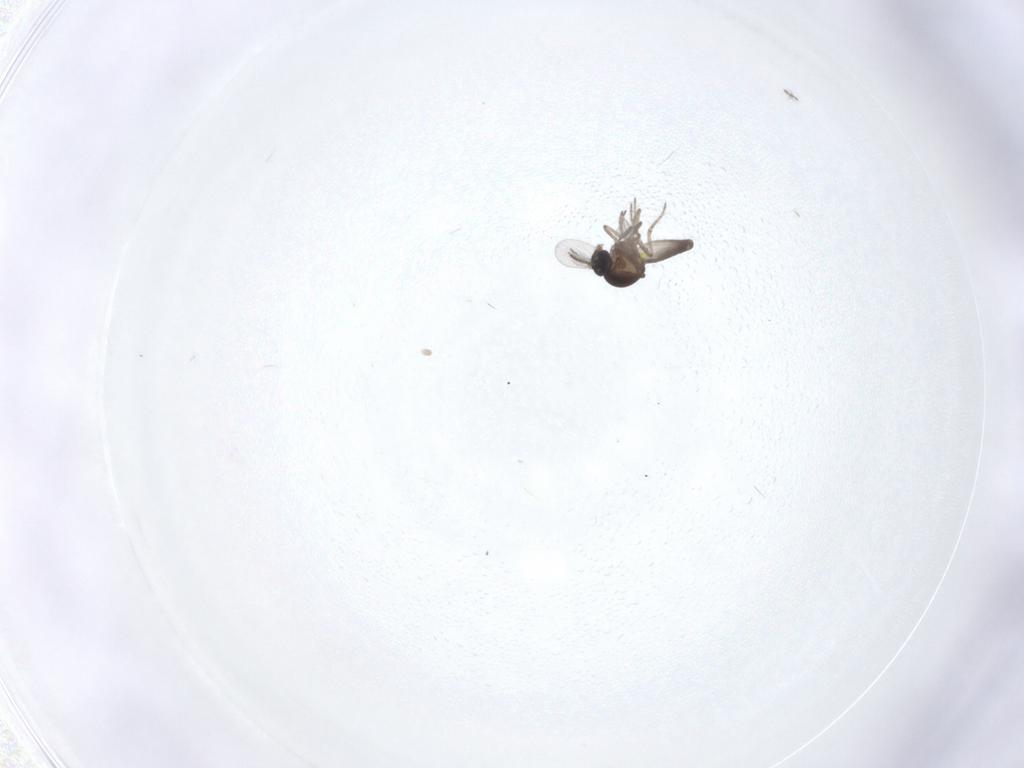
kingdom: Animalia
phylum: Arthropoda
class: Insecta
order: Diptera
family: Ceratopogonidae
